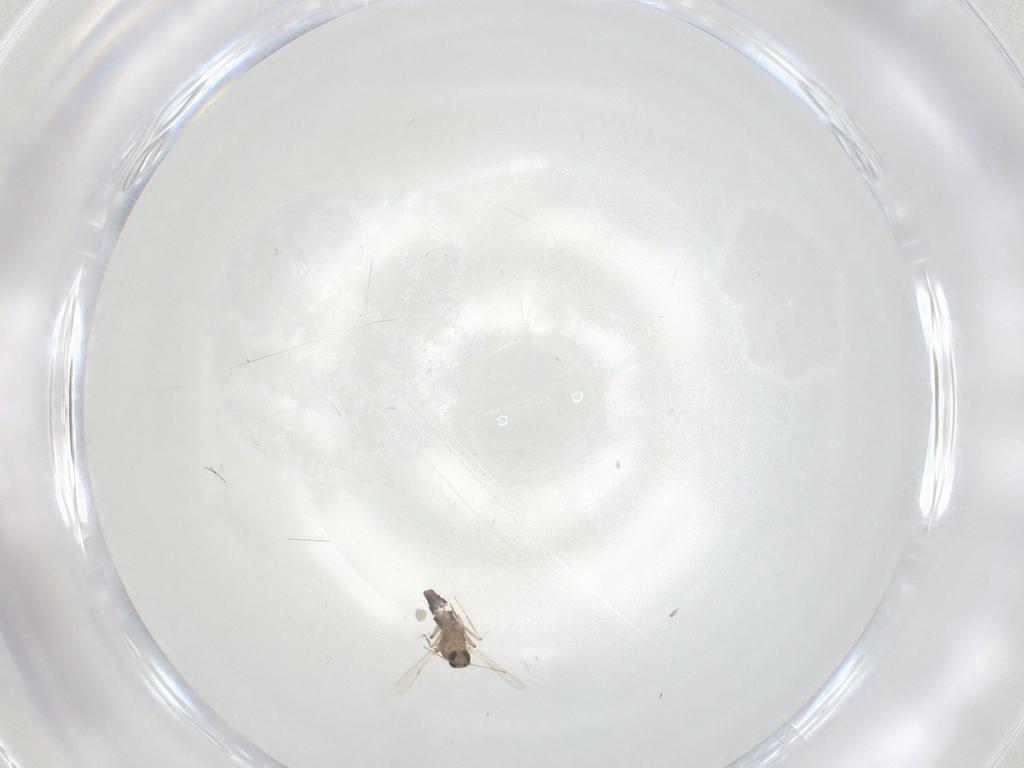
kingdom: Animalia
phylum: Arthropoda
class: Insecta
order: Diptera
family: Ceratopogonidae
